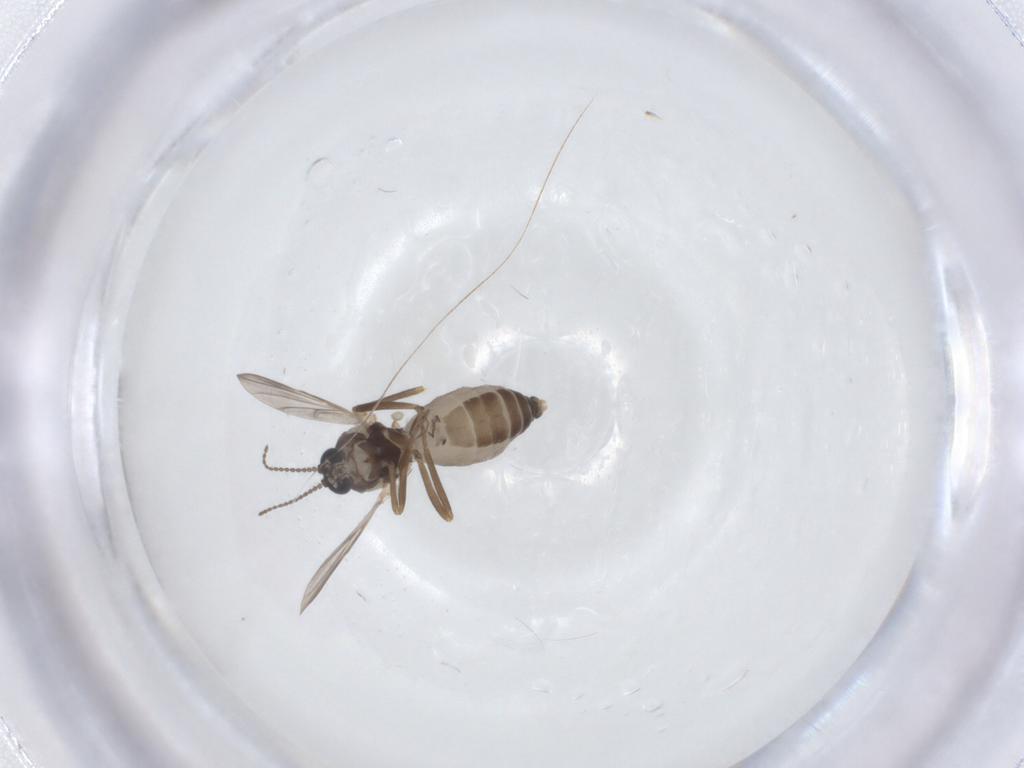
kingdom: Animalia
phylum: Arthropoda
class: Insecta
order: Diptera
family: Ceratopogonidae
